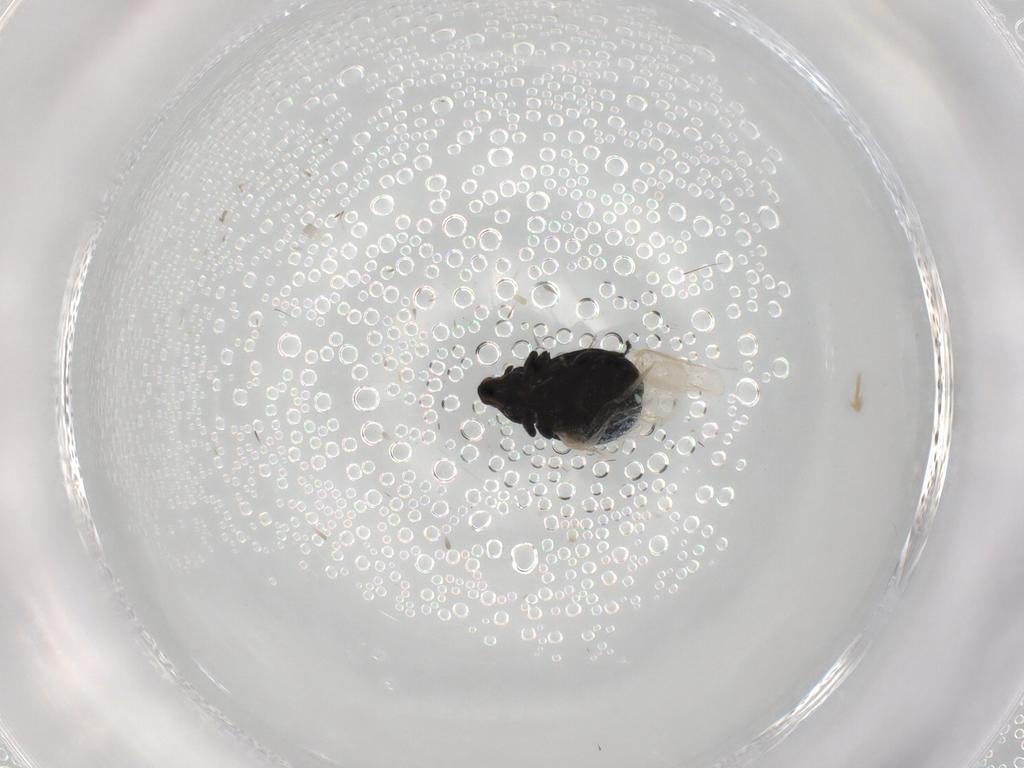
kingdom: Animalia
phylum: Arthropoda
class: Insecta
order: Coleoptera
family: Curculionidae
